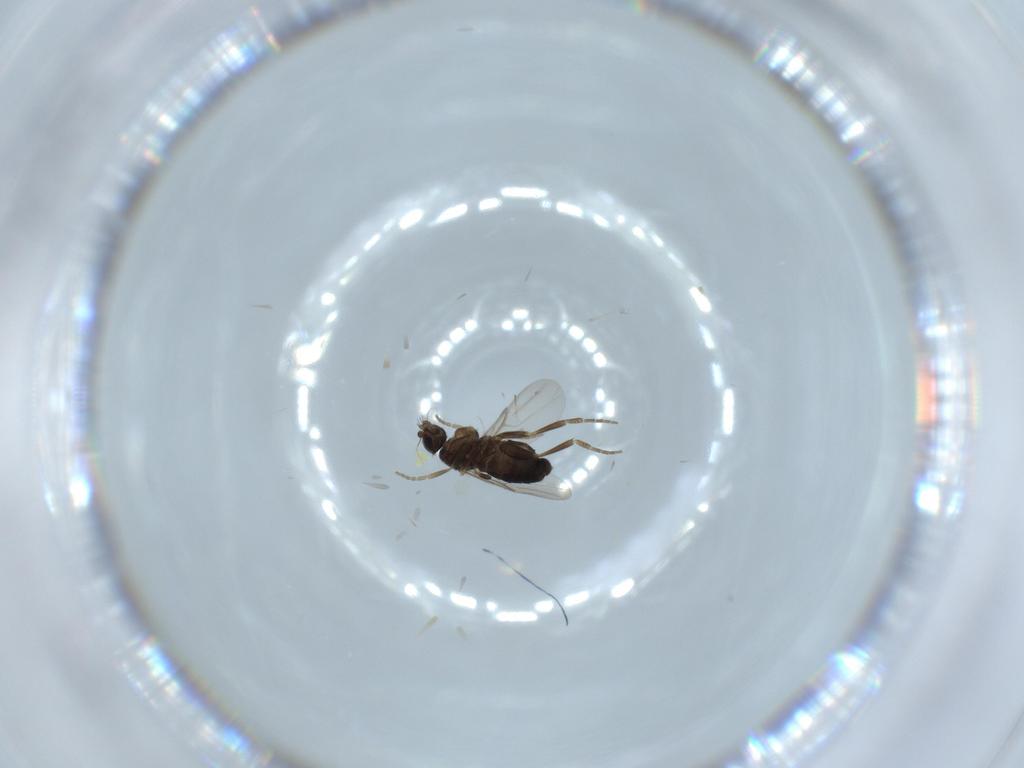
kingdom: Animalia
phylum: Arthropoda
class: Insecta
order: Diptera
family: Phoridae
